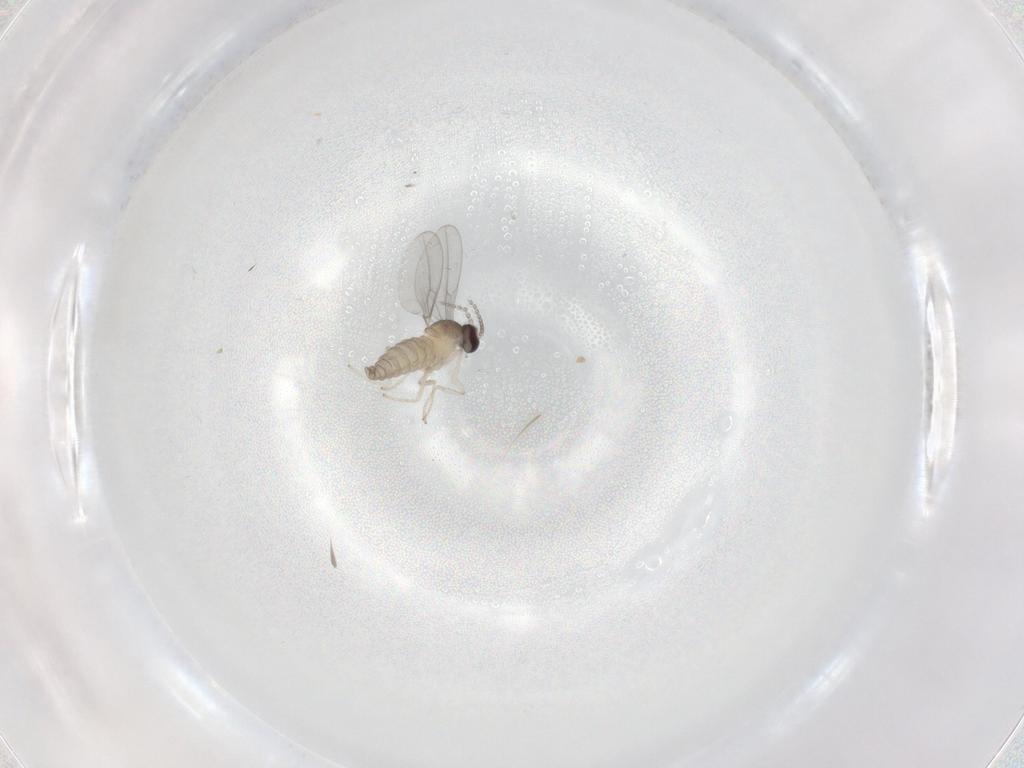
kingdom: Animalia
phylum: Arthropoda
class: Insecta
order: Diptera
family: Cecidomyiidae
